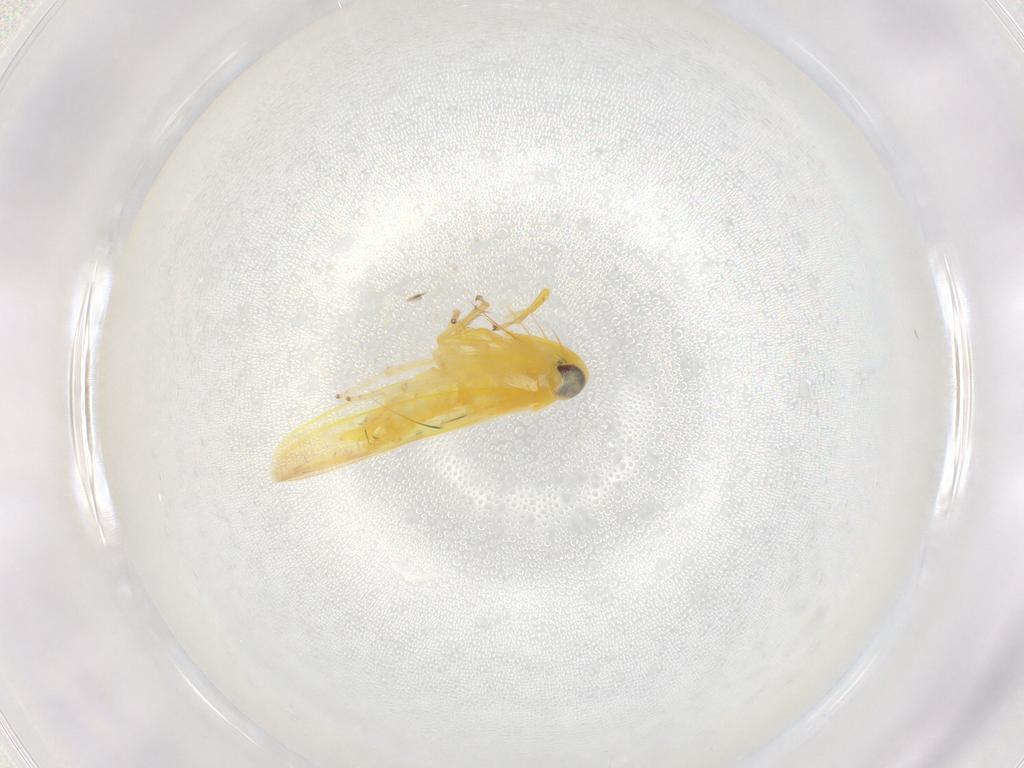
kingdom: Animalia
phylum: Arthropoda
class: Insecta
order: Hemiptera
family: Cicadellidae
